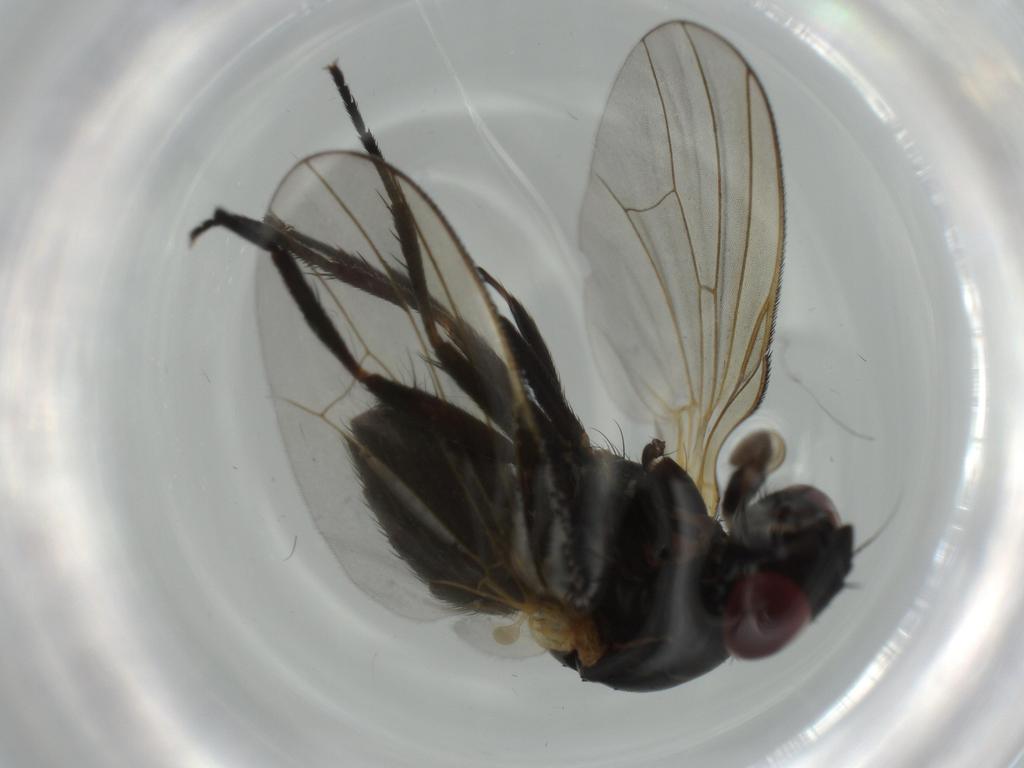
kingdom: Animalia
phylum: Arthropoda
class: Insecta
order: Diptera
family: Chironomidae
